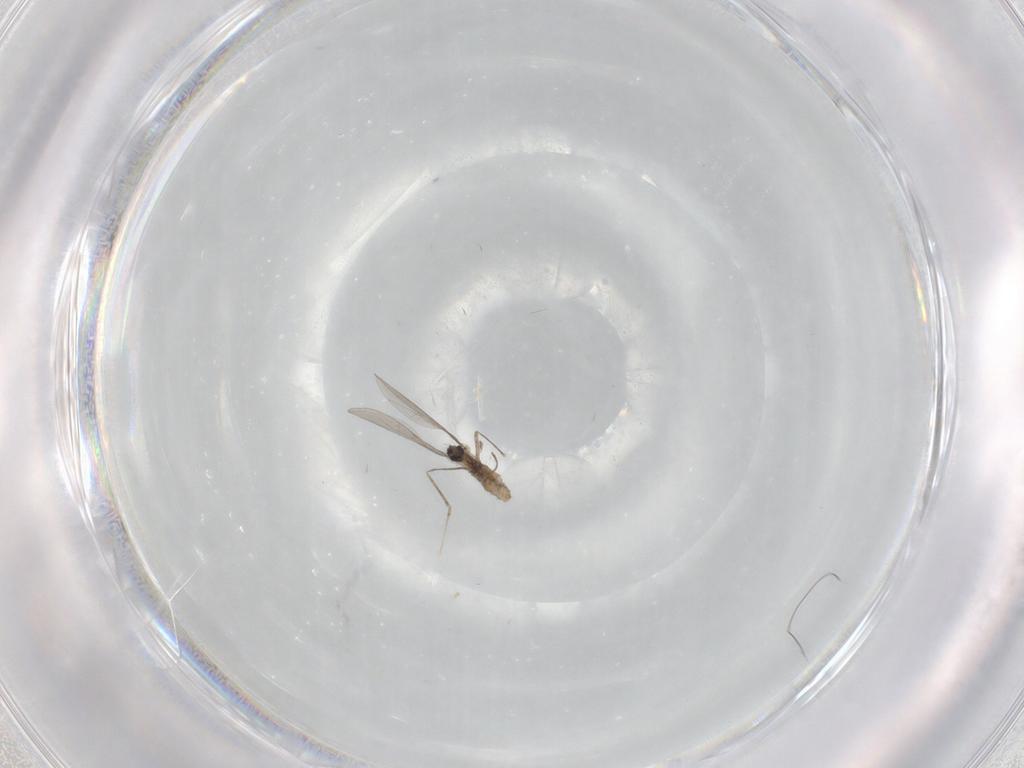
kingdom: Animalia
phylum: Arthropoda
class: Insecta
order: Diptera
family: Cecidomyiidae
